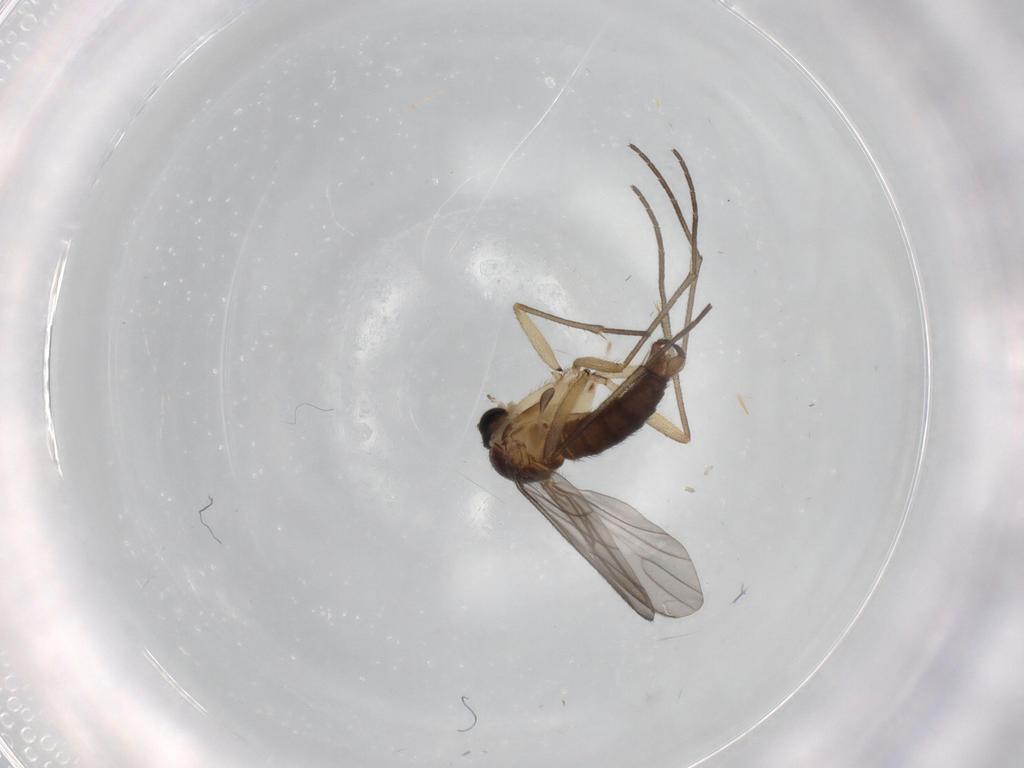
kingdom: Animalia
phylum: Arthropoda
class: Insecta
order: Diptera
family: Sciaridae
